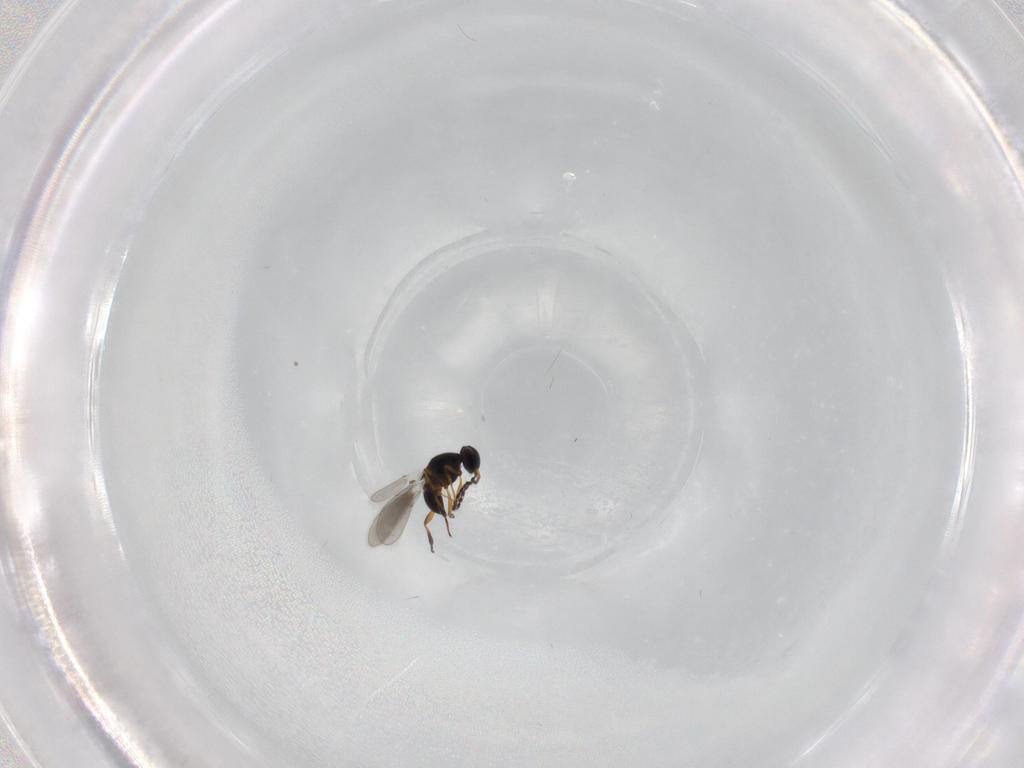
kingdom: Animalia
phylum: Arthropoda
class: Insecta
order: Hymenoptera
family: Platygastridae
